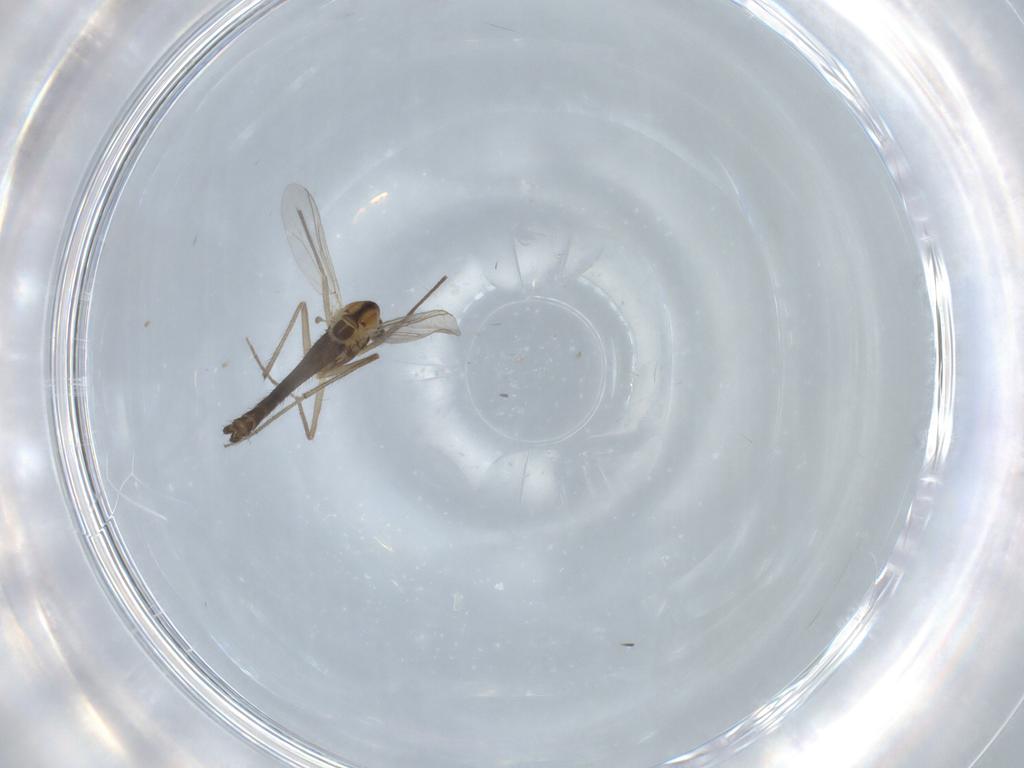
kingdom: Animalia
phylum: Arthropoda
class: Insecta
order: Diptera
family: Chironomidae
